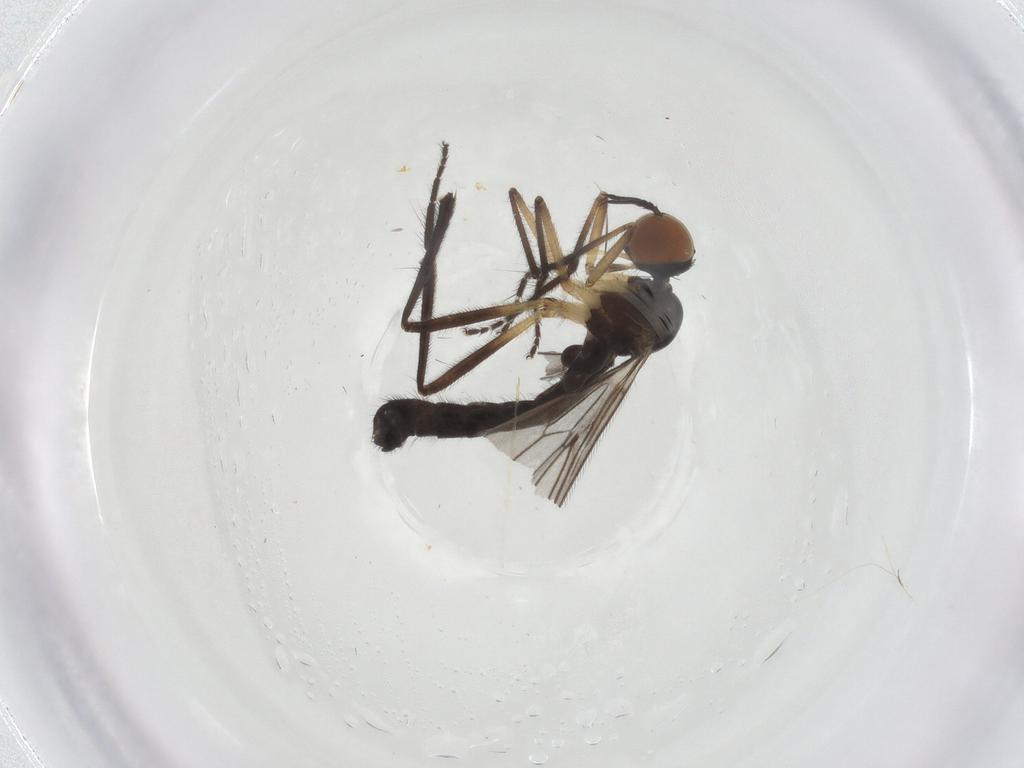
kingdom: Animalia
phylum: Arthropoda
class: Insecta
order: Diptera
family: Empididae
